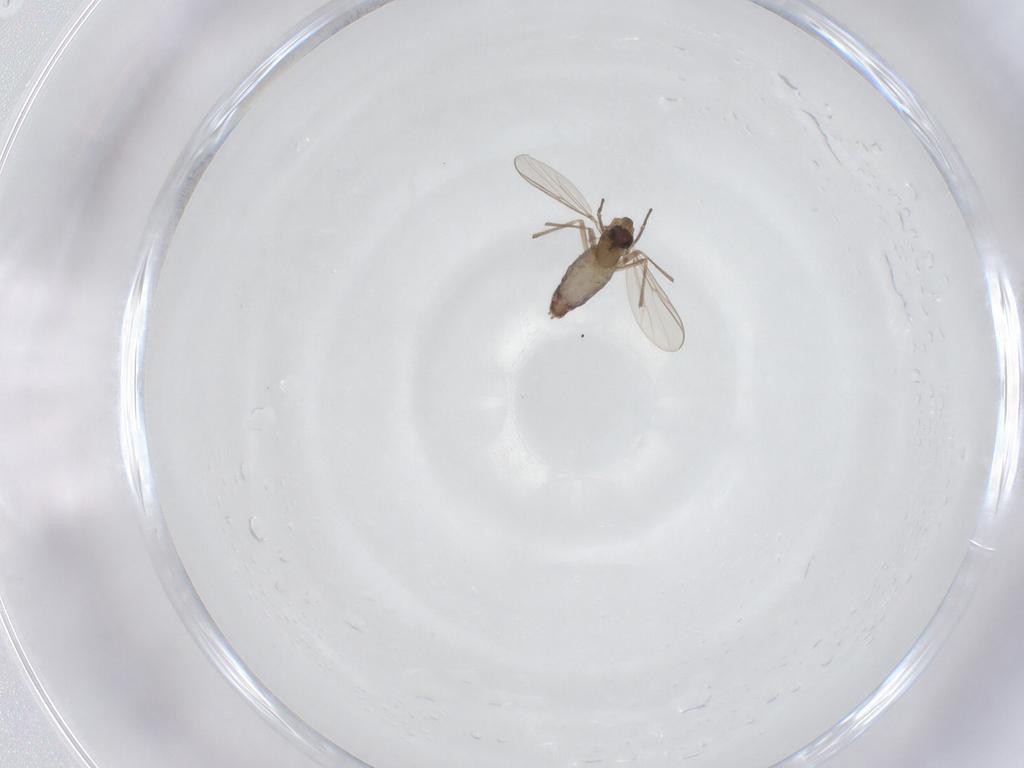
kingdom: Animalia
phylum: Arthropoda
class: Insecta
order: Diptera
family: Chironomidae
